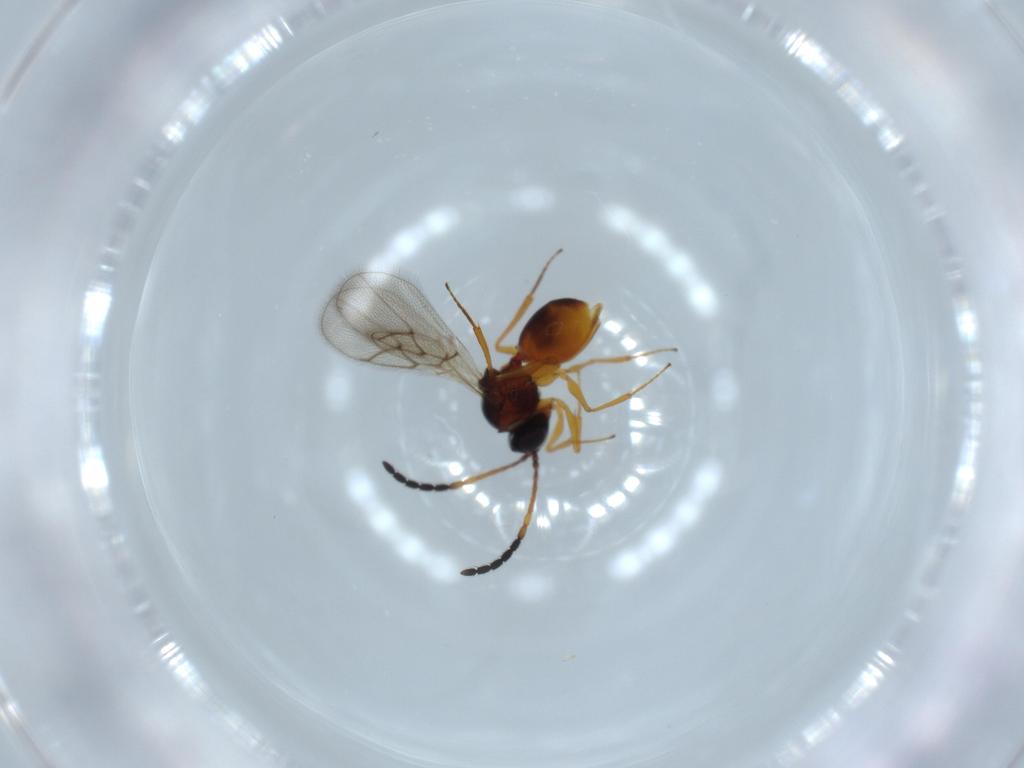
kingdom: Animalia
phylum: Arthropoda
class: Insecta
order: Hymenoptera
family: Figitidae
